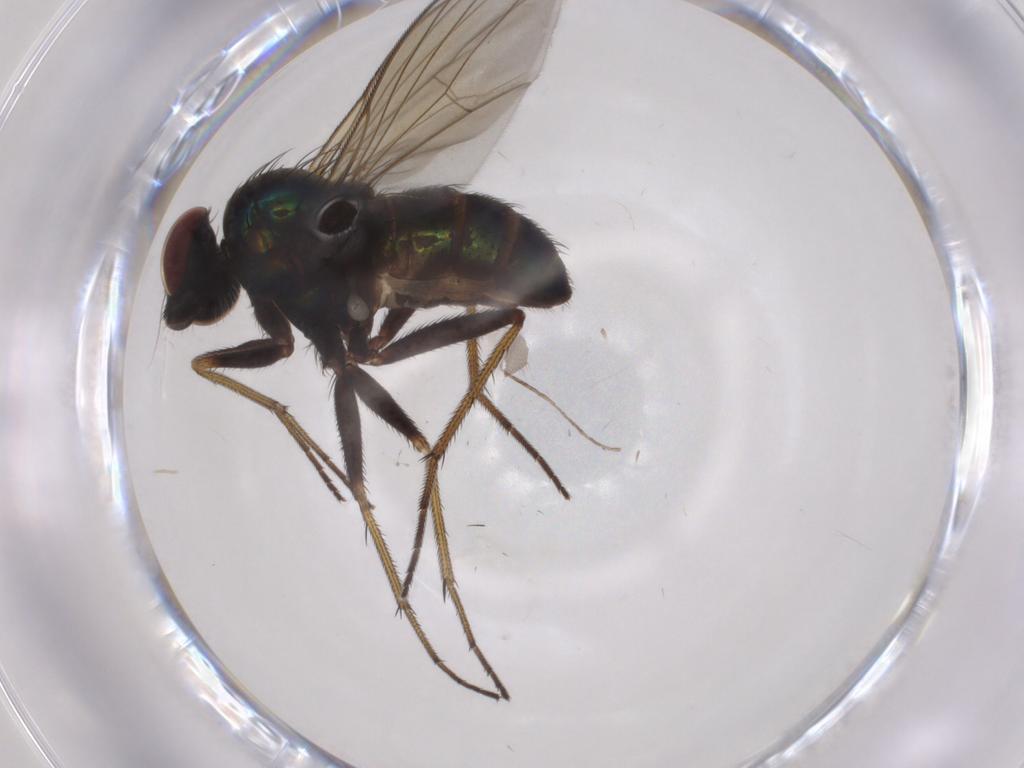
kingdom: Animalia
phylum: Arthropoda
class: Insecta
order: Diptera
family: Dolichopodidae
